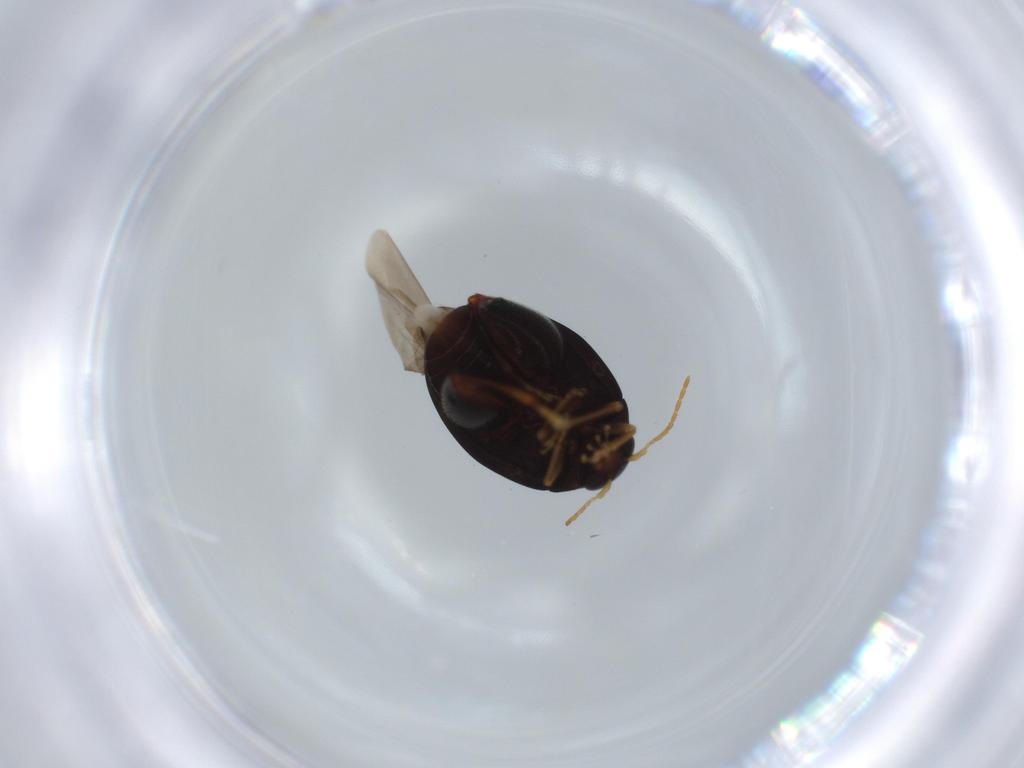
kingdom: Animalia
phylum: Arthropoda
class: Insecta
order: Coleoptera
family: Chrysomelidae
